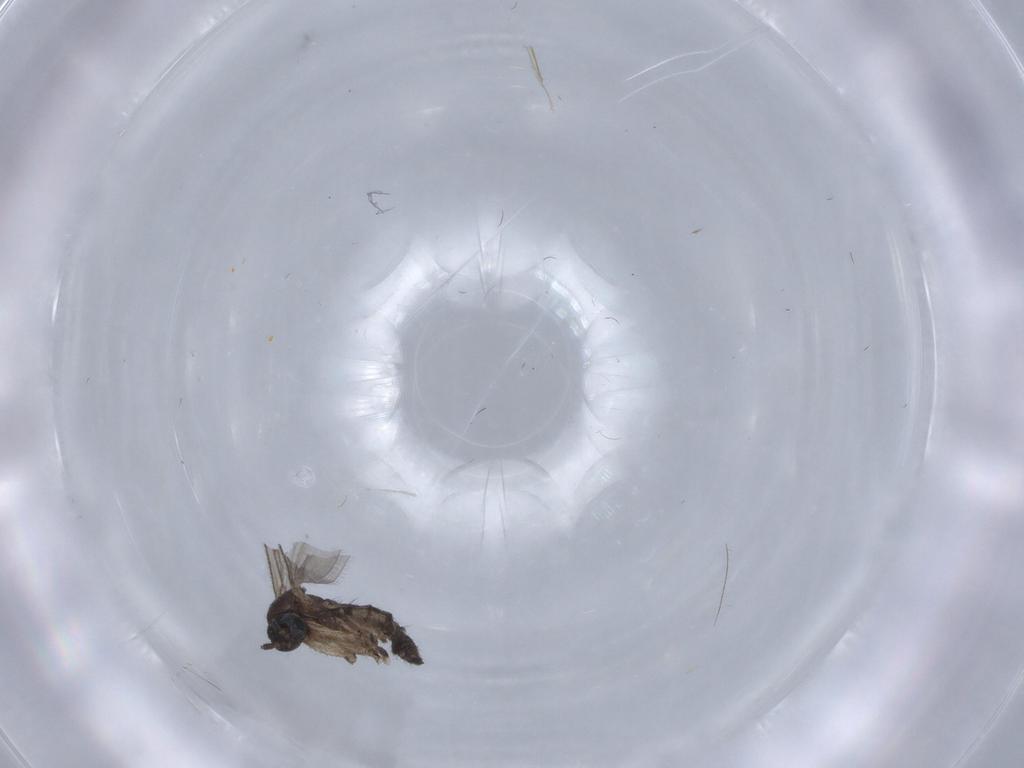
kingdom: Animalia
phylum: Arthropoda
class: Insecta
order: Diptera
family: Sciaridae
